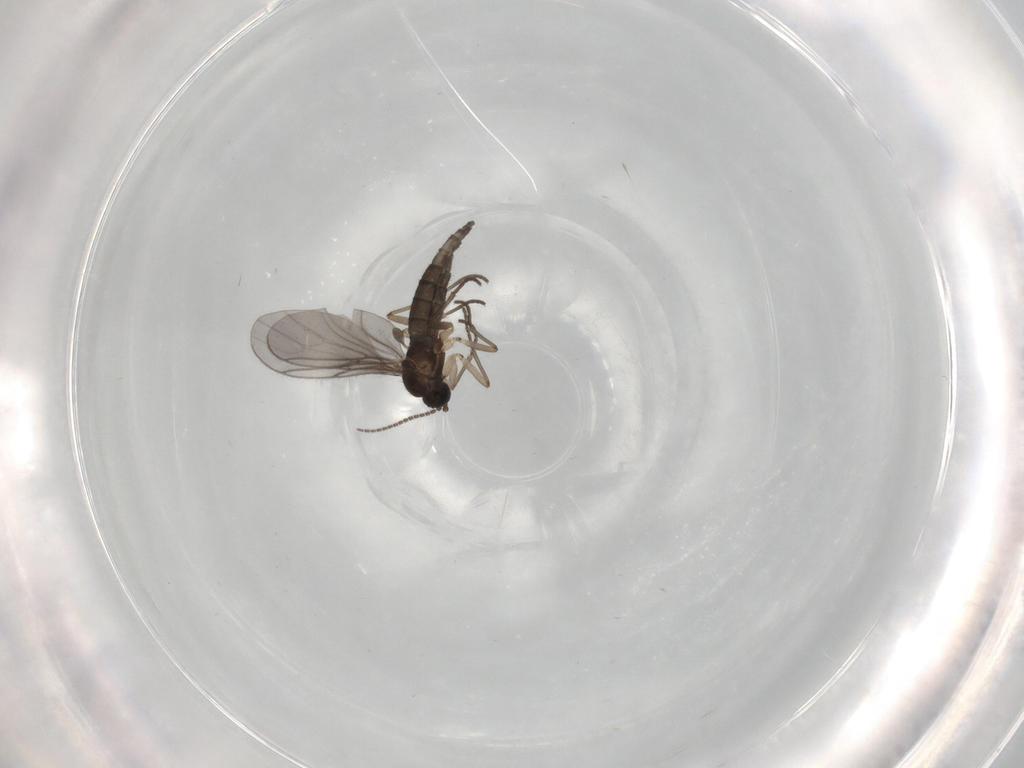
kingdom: Animalia
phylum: Arthropoda
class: Insecta
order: Diptera
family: Sciaridae
